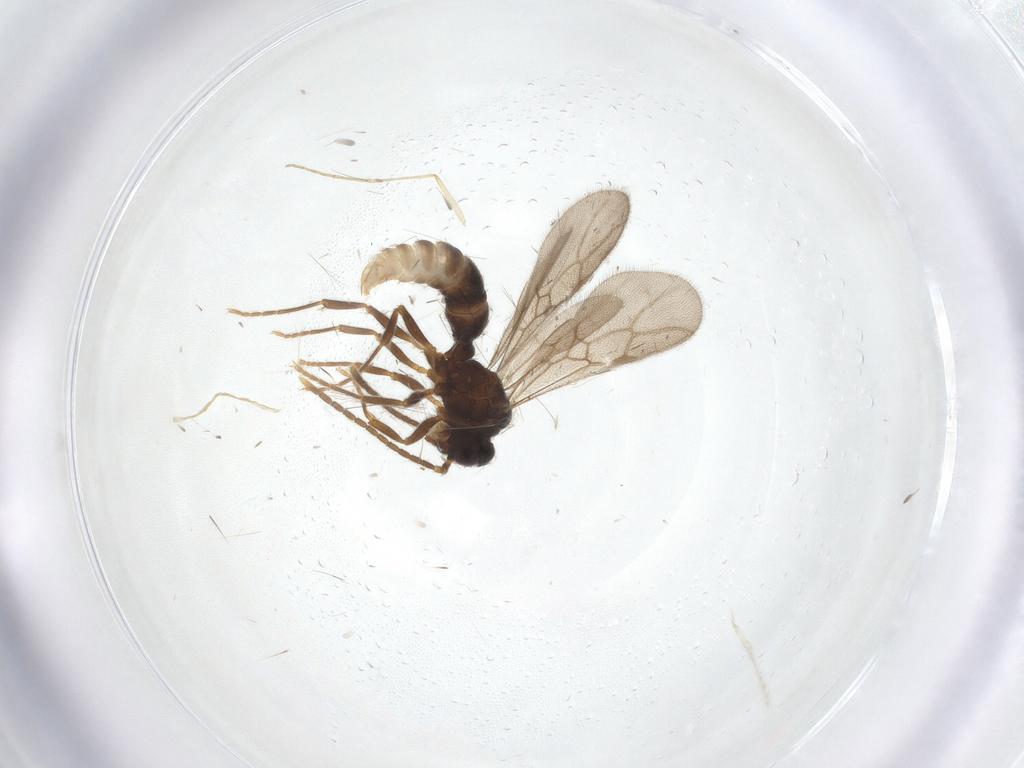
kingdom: Animalia
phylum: Arthropoda
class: Insecta
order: Hymenoptera
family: Formicidae
